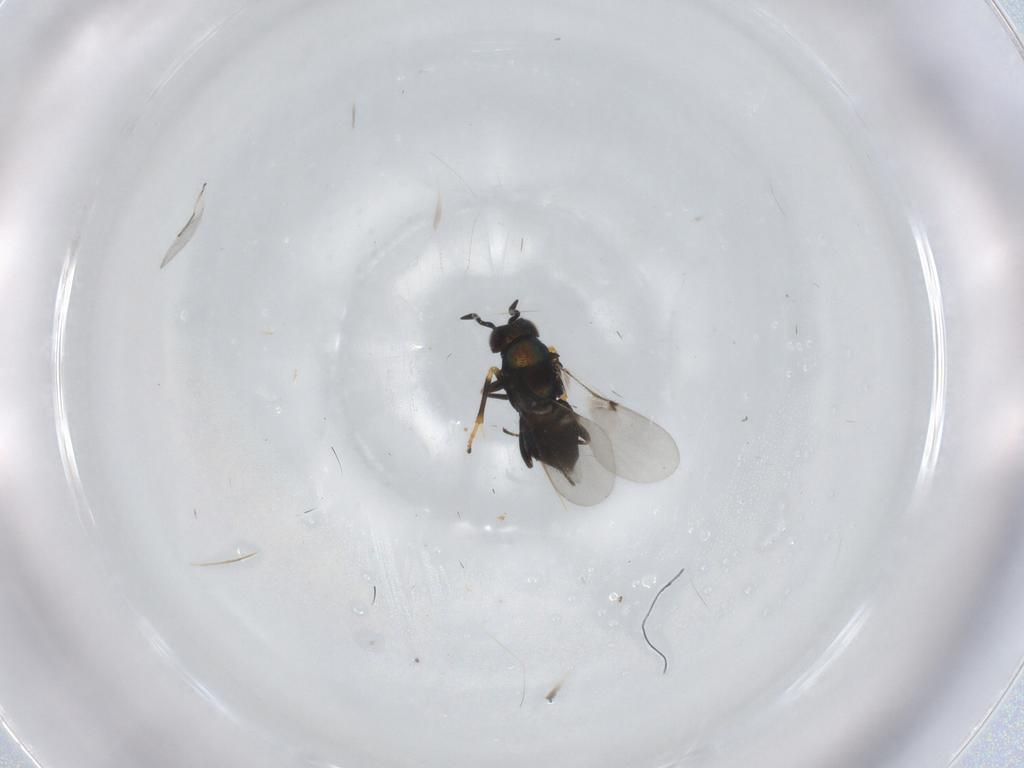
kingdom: Animalia
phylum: Arthropoda
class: Insecta
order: Hymenoptera
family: Encyrtidae
